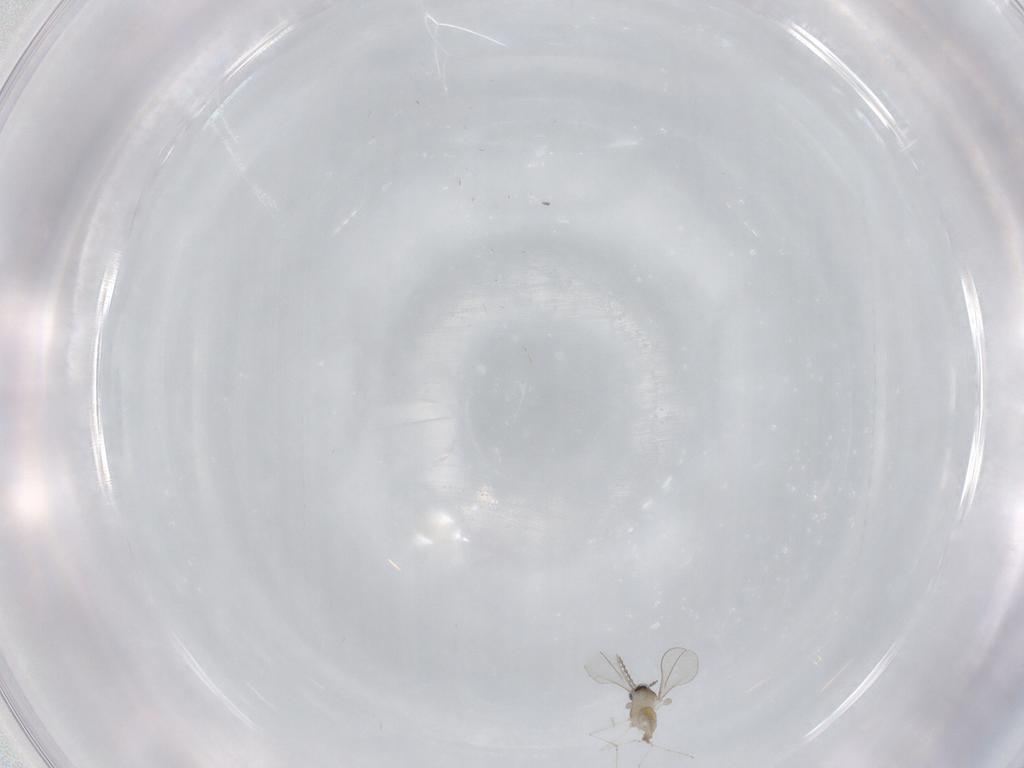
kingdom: Animalia
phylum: Arthropoda
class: Insecta
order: Diptera
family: Cecidomyiidae
